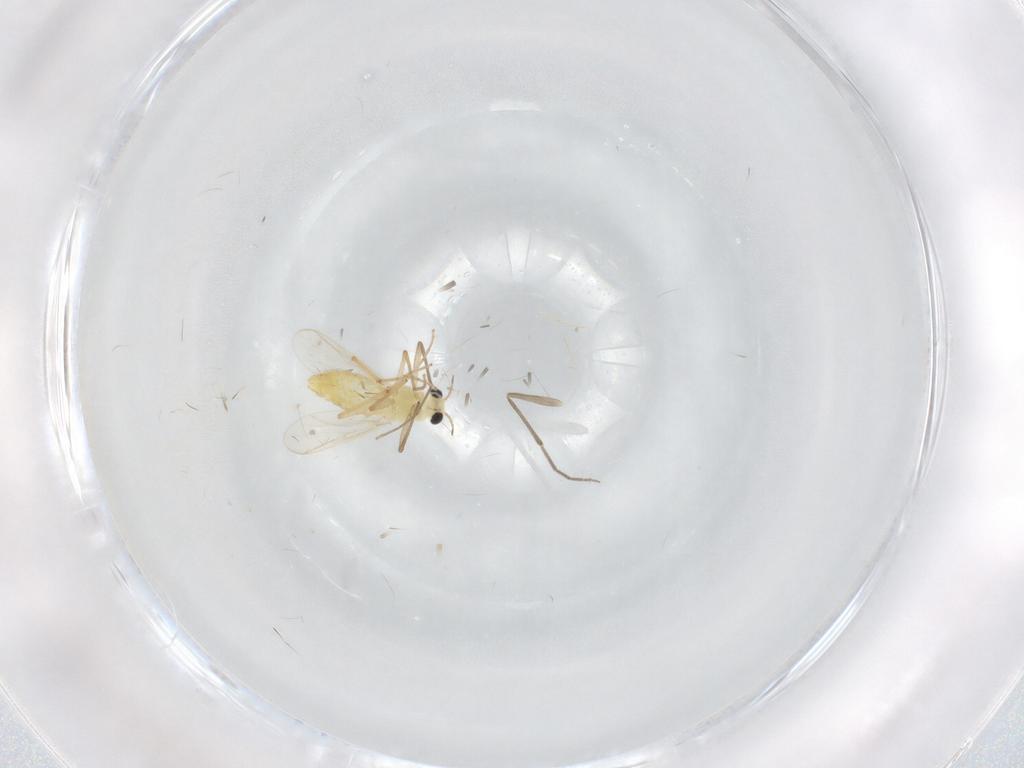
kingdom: Animalia
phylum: Arthropoda
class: Insecta
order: Diptera
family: Chironomidae
